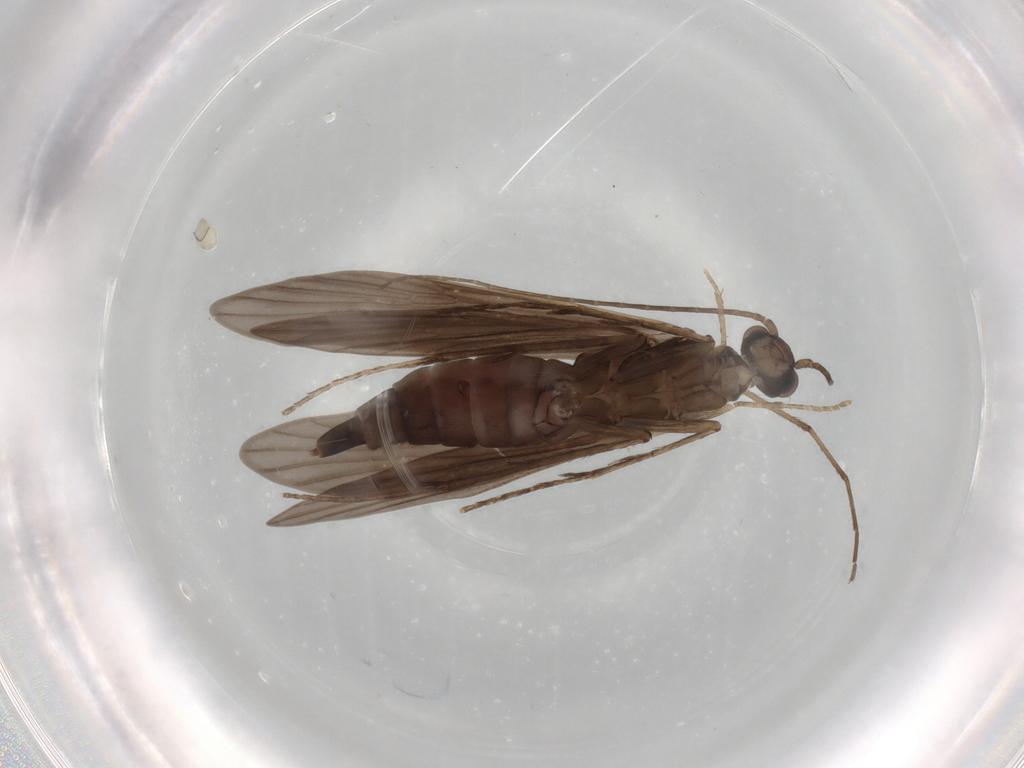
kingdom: Animalia
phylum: Arthropoda
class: Insecta
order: Trichoptera
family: Xiphocentronidae
